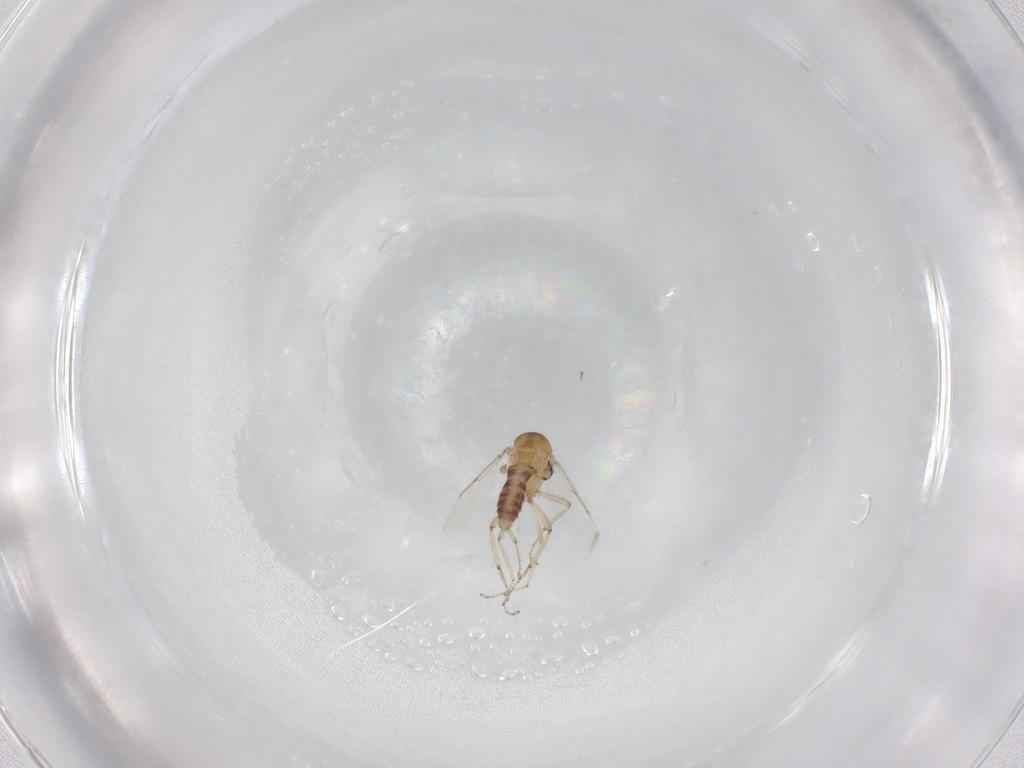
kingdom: Animalia
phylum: Arthropoda
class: Insecta
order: Diptera
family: Ceratopogonidae
